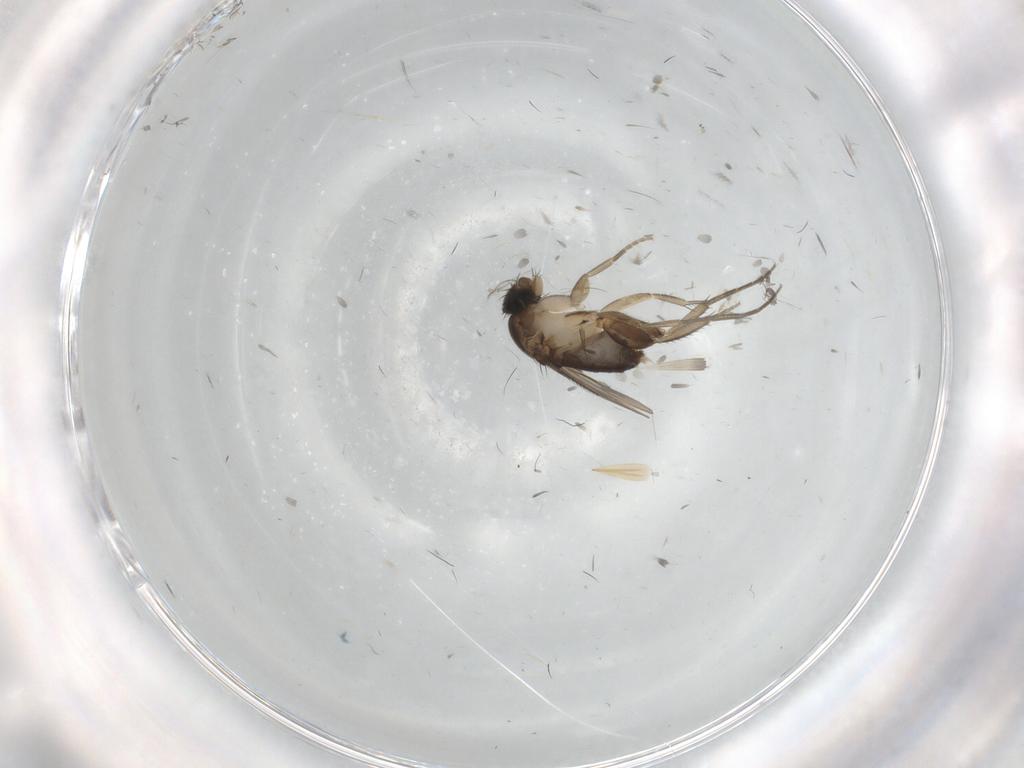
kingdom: Animalia
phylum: Arthropoda
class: Insecta
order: Diptera
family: Phoridae
